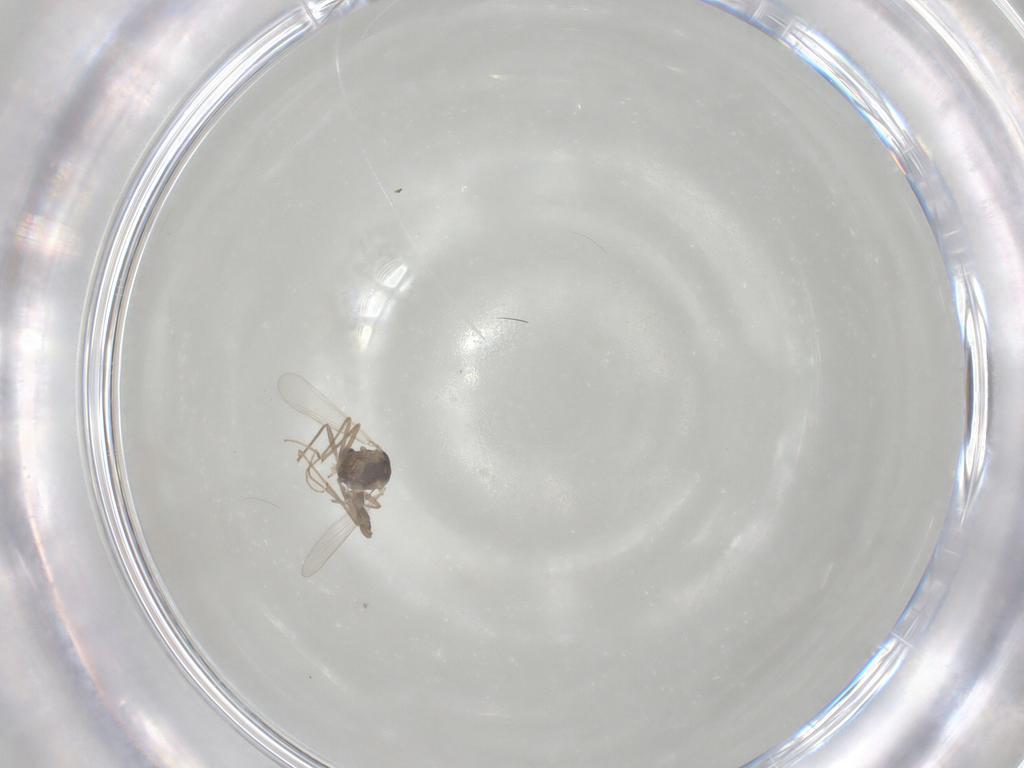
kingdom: Animalia
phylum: Arthropoda
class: Insecta
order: Diptera
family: Chironomidae
